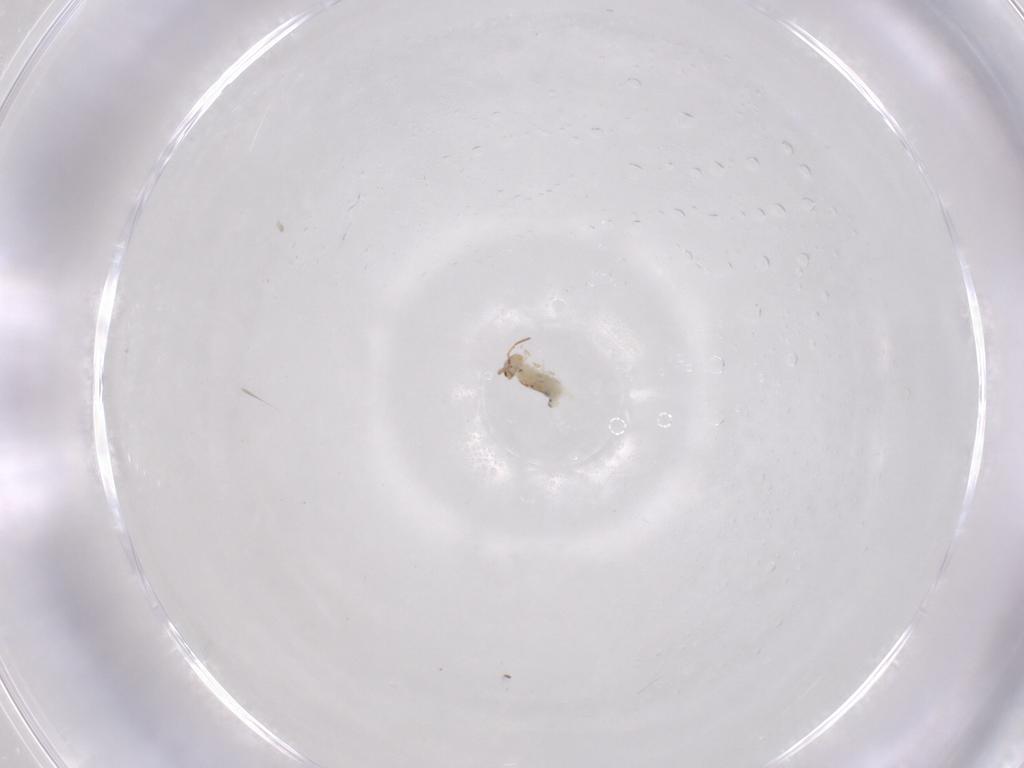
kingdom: Animalia
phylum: Arthropoda
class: Collembola
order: Symphypleona
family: Bourletiellidae
